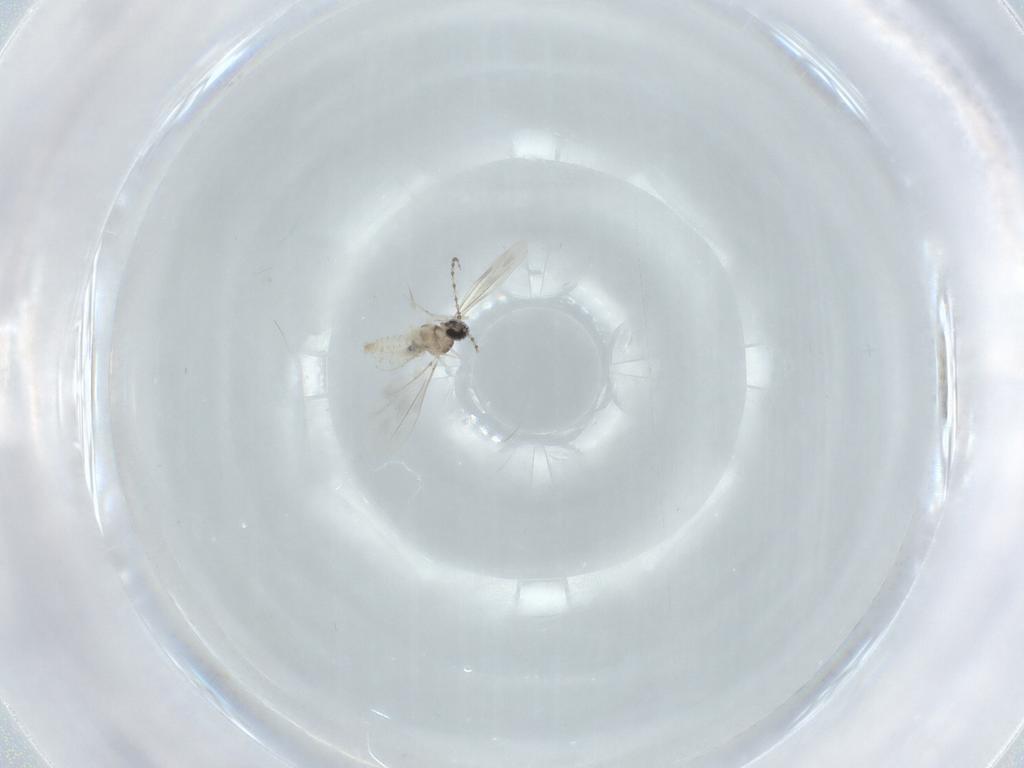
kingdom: Animalia
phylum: Arthropoda
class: Insecta
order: Diptera
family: Cecidomyiidae
